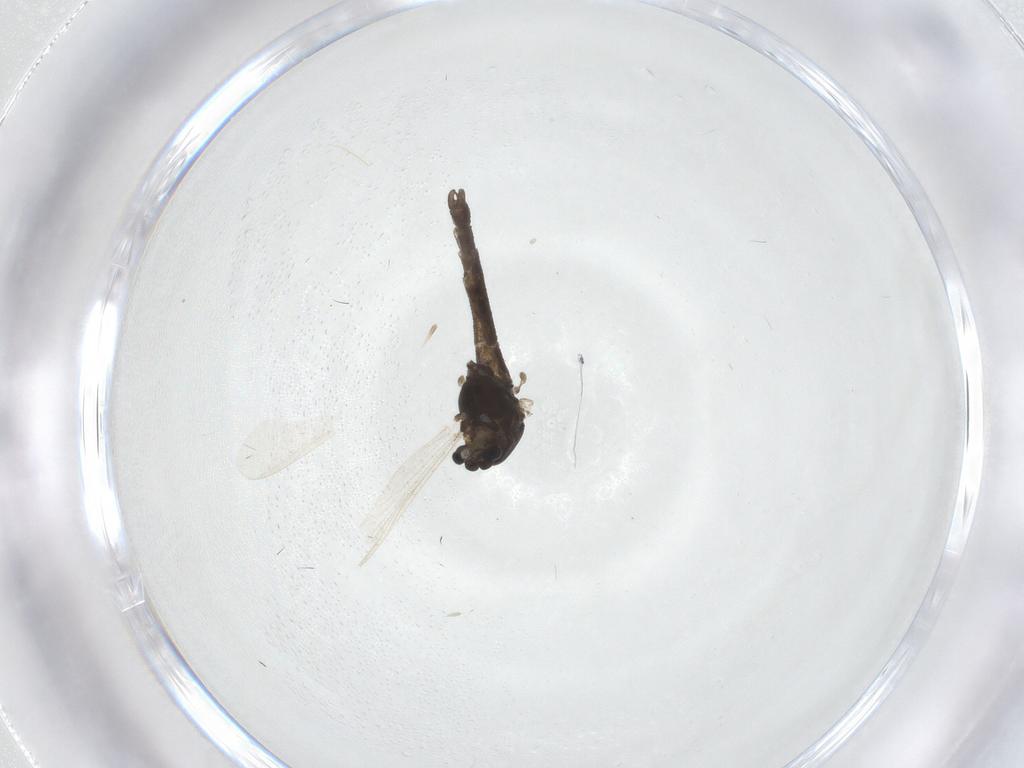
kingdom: Animalia
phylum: Arthropoda
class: Insecta
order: Diptera
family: Chironomidae
